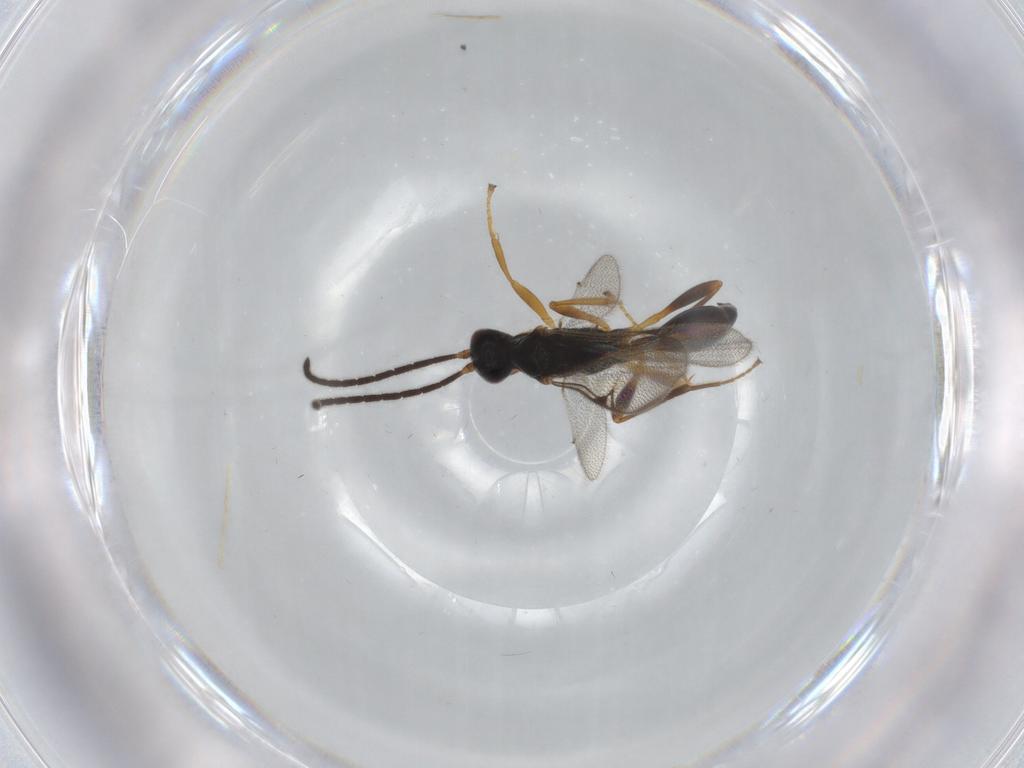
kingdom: Animalia
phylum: Arthropoda
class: Insecta
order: Hymenoptera
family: Proctotrupidae
